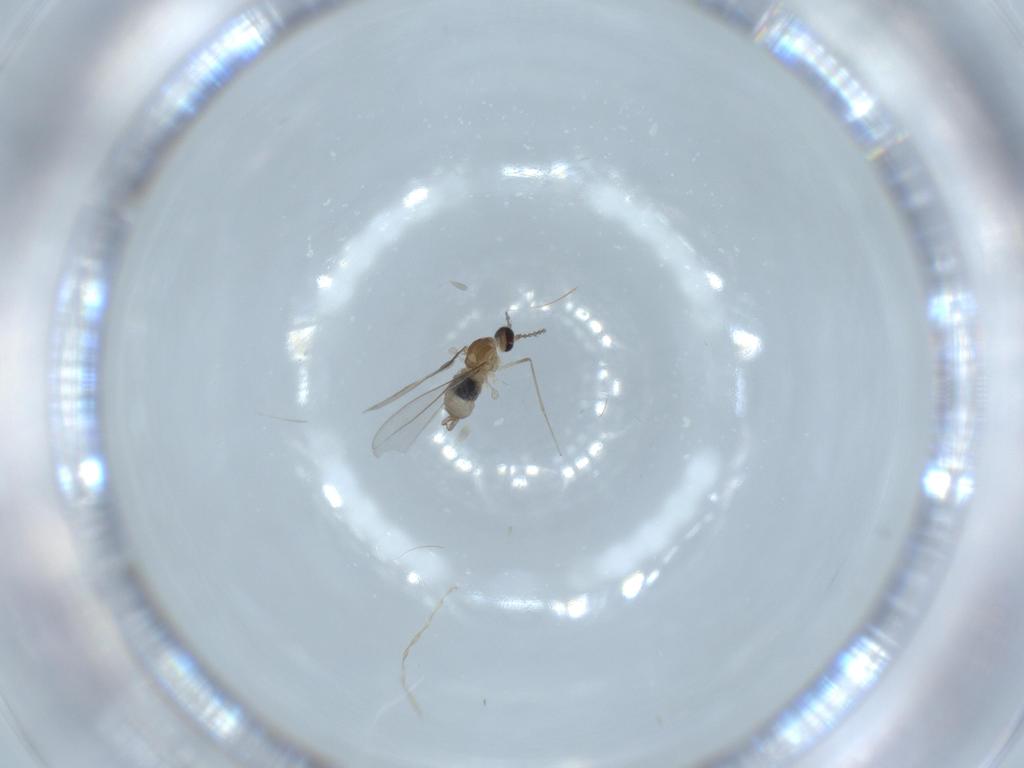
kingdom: Animalia
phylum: Arthropoda
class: Insecta
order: Diptera
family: Cecidomyiidae
